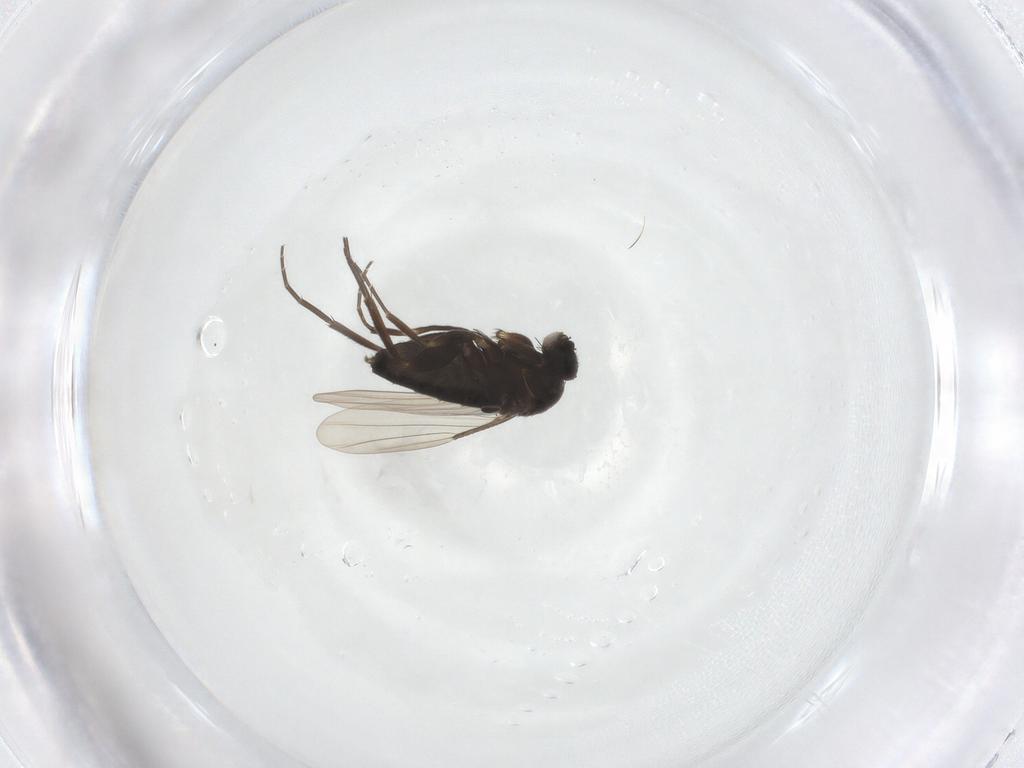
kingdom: Animalia
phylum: Arthropoda
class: Insecta
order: Diptera
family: Phoridae
